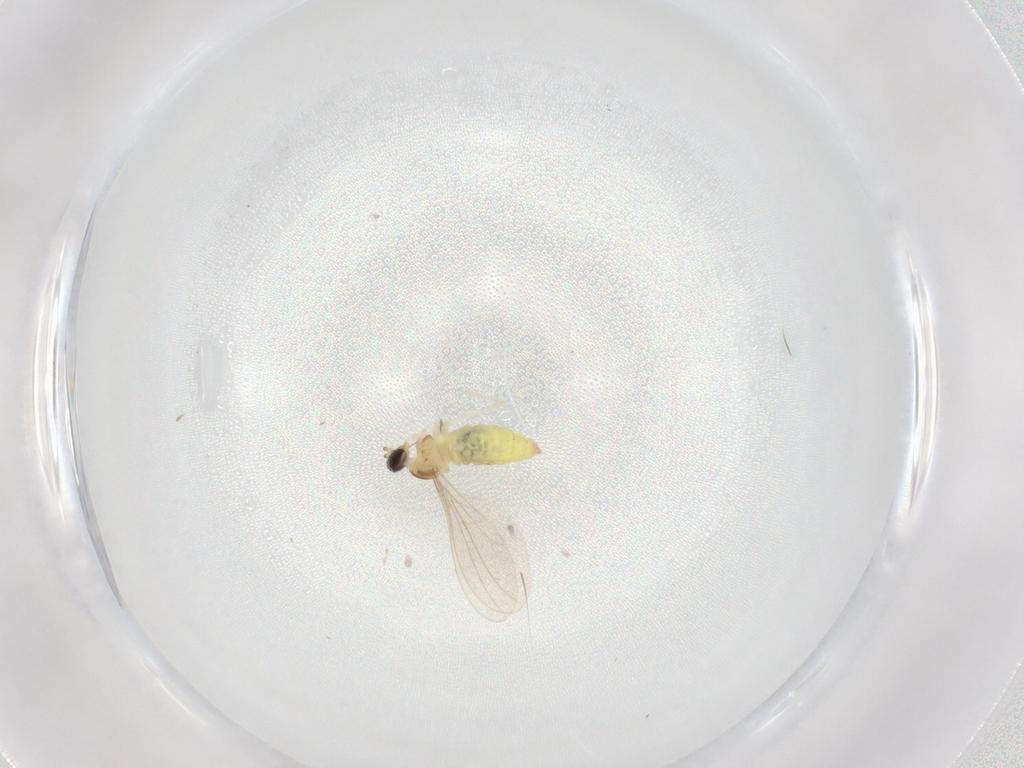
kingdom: Animalia
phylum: Arthropoda
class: Insecta
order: Diptera
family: Cecidomyiidae
